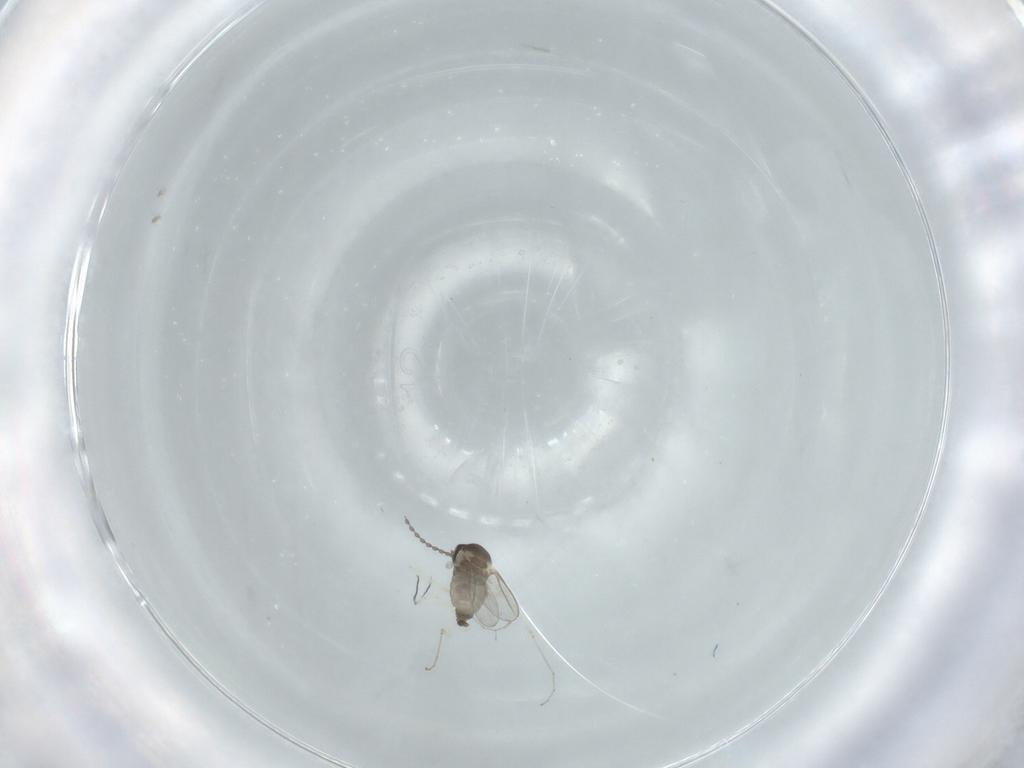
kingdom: Animalia
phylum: Arthropoda
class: Insecta
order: Diptera
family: Cecidomyiidae
